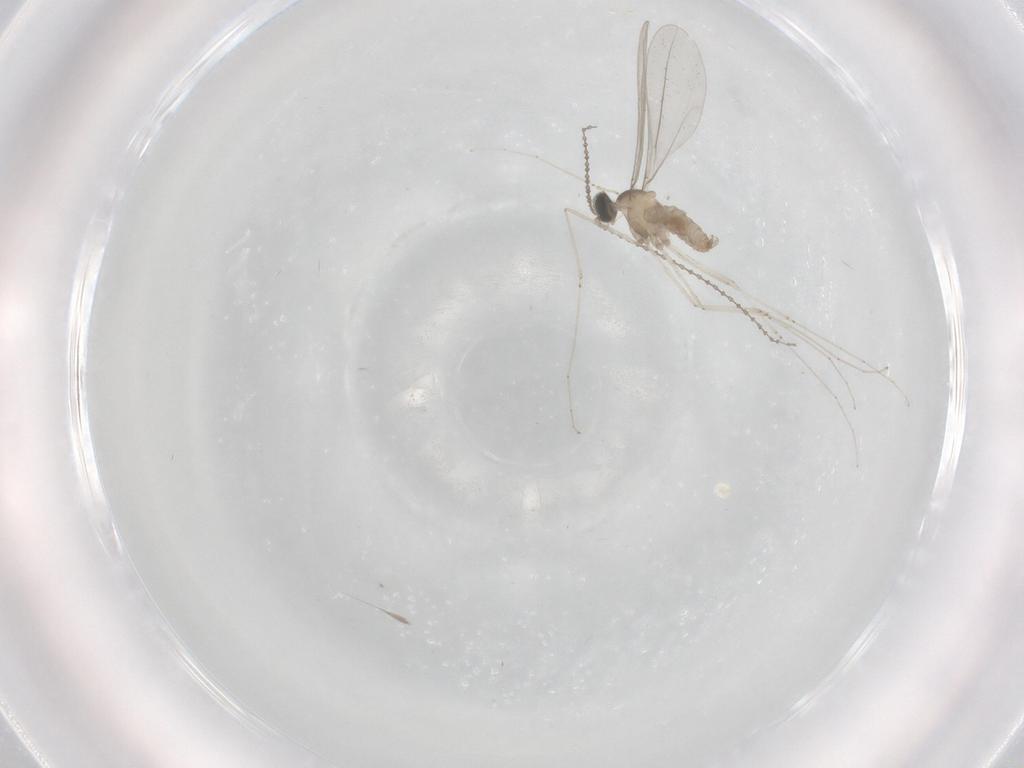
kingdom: Animalia
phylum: Arthropoda
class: Insecta
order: Diptera
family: Cecidomyiidae
